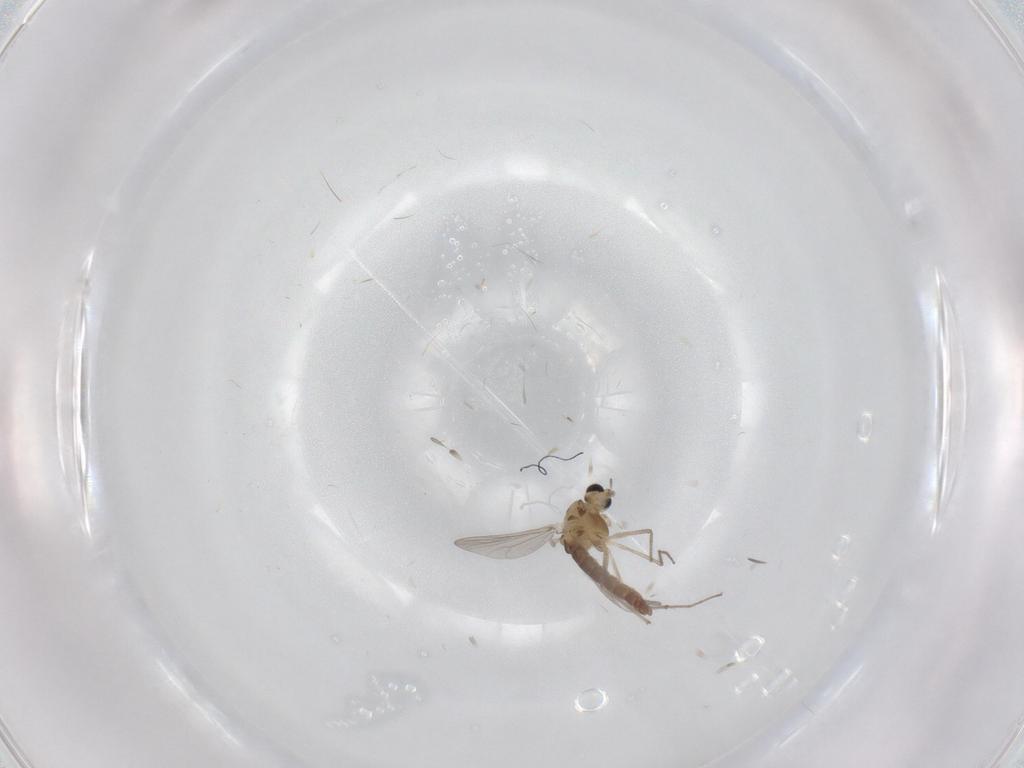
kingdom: Animalia
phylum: Arthropoda
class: Insecta
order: Diptera
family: Chironomidae
